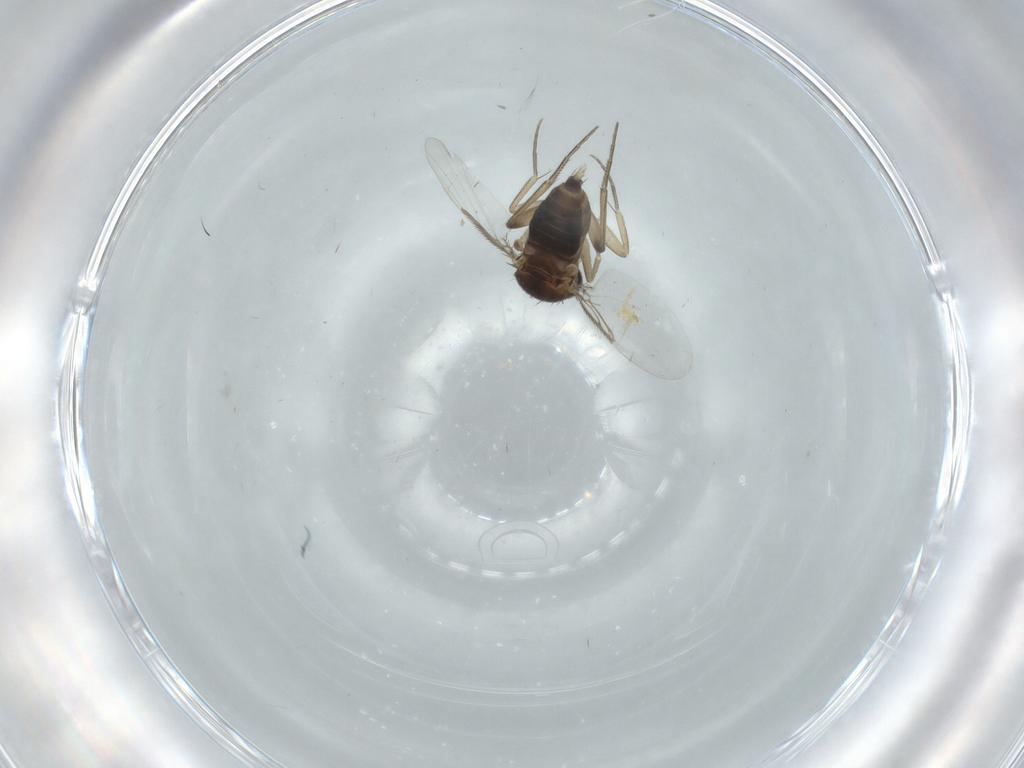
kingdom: Animalia
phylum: Arthropoda
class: Insecta
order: Diptera
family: Phoridae
